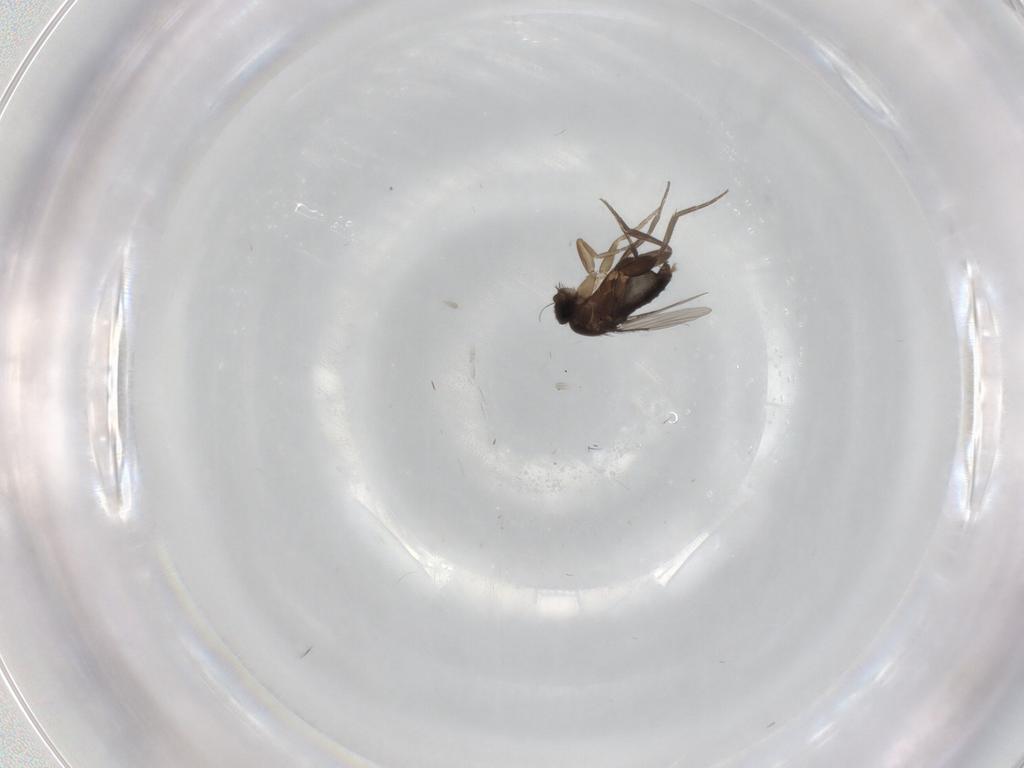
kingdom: Animalia
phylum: Arthropoda
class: Insecta
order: Diptera
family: Phoridae
